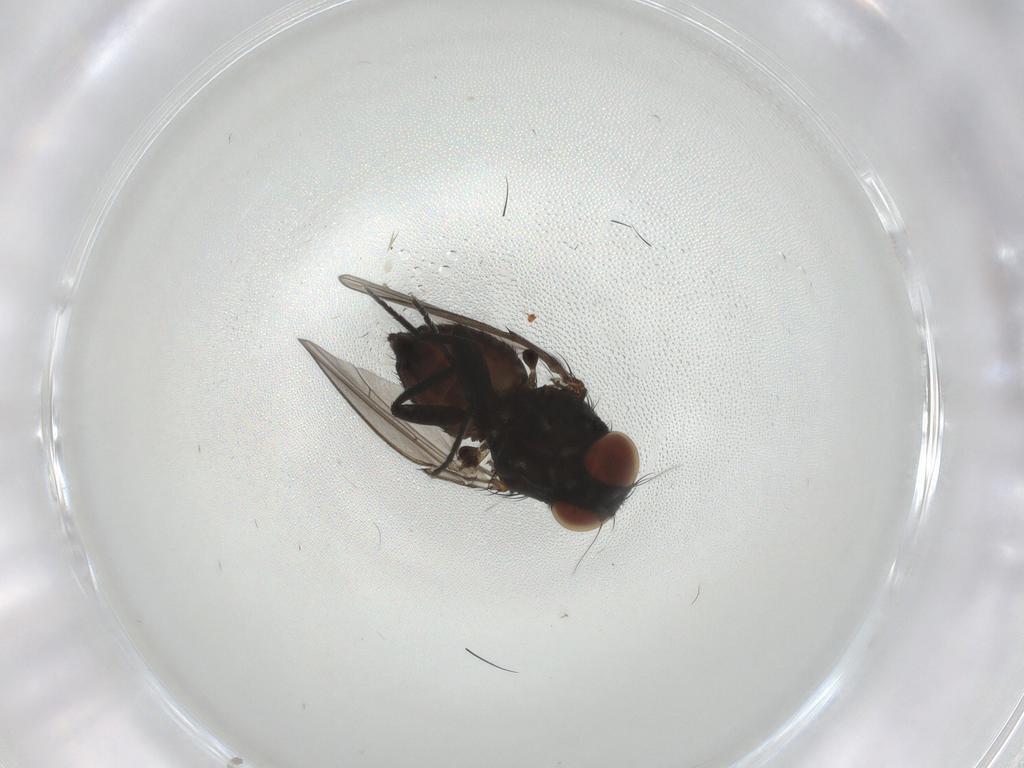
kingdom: Animalia
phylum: Arthropoda
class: Insecta
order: Diptera
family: Milichiidae
